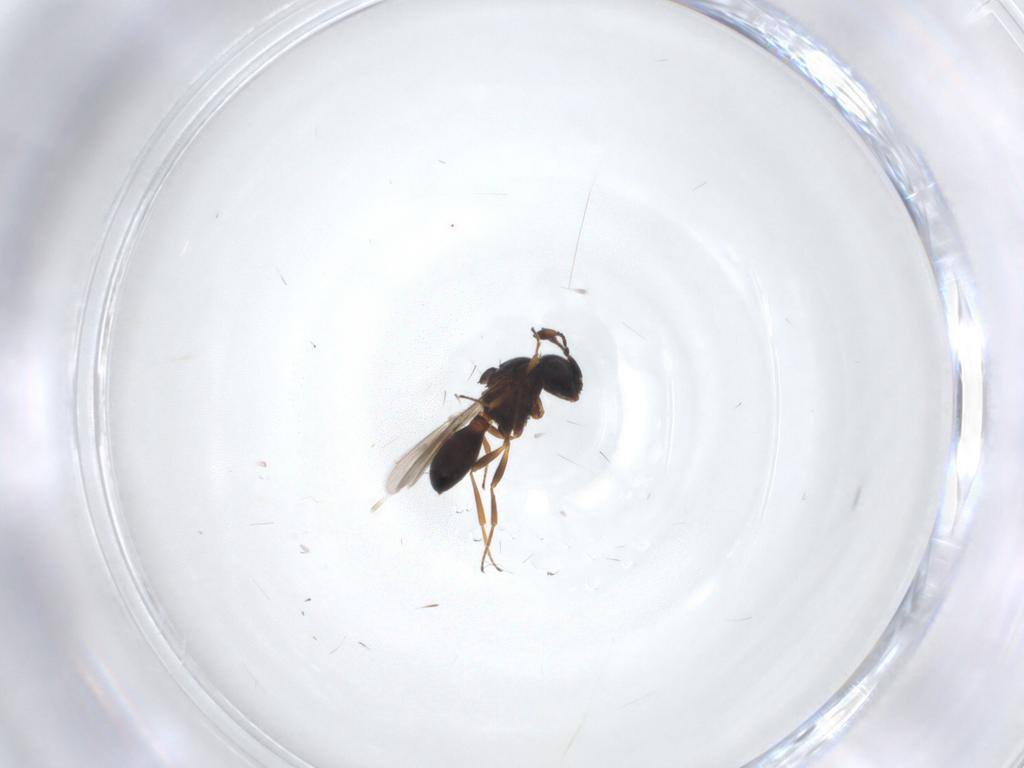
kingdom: Animalia
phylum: Arthropoda
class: Insecta
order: Hymenoptera
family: Scelionidae
